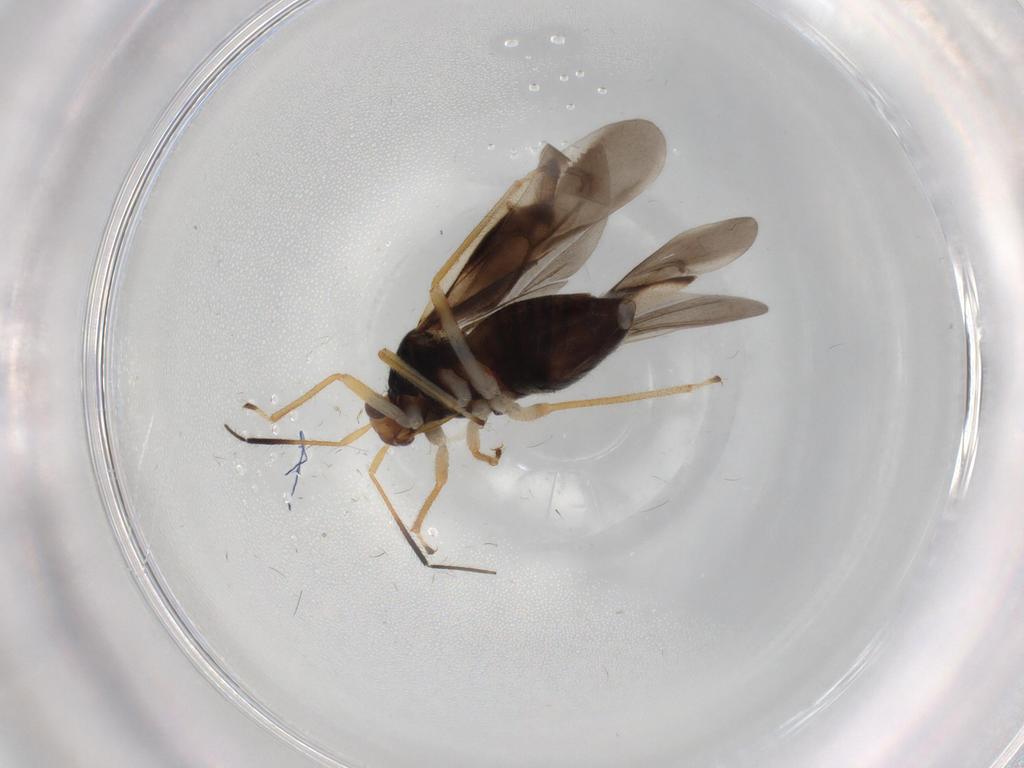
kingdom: Animalia
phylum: Arthropoda
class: Insecta
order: Hemiptera
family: Miridae
